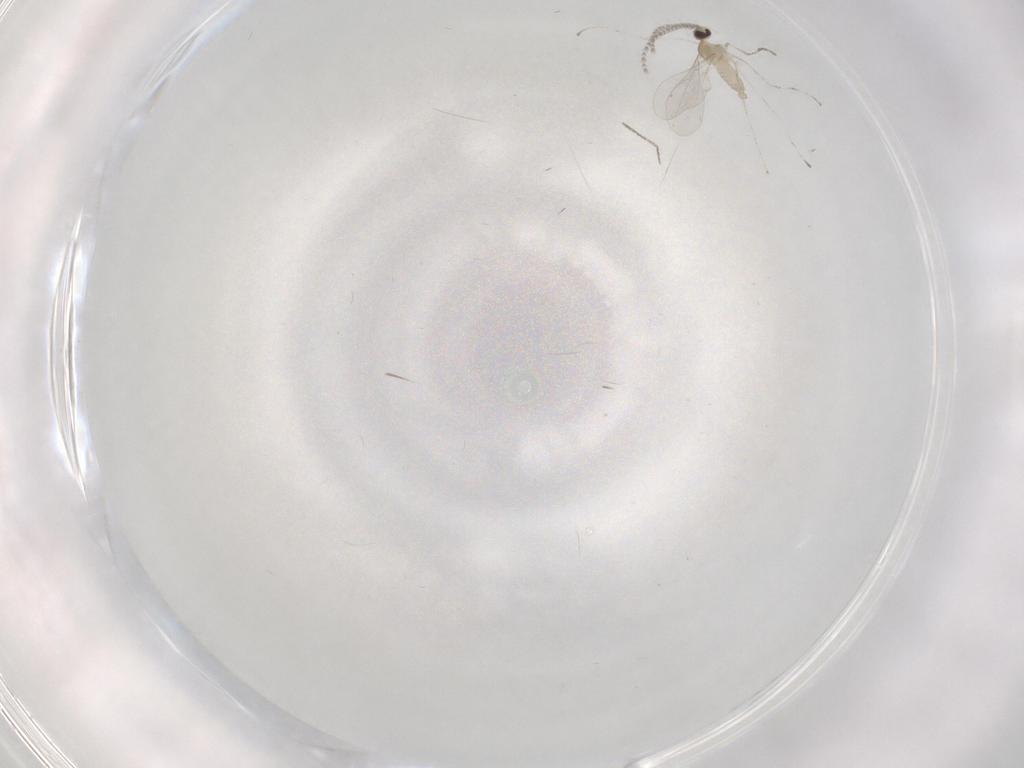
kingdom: Animalia
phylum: Arthropoda
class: Insecta
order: Diptera
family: Cecidomyiidae
